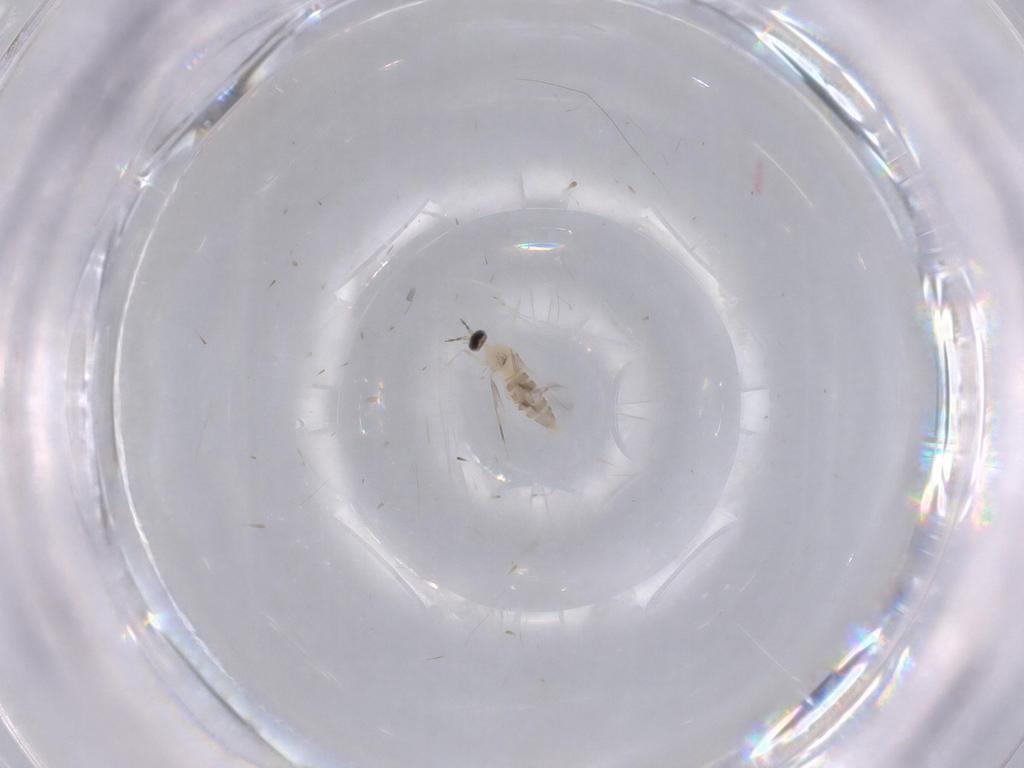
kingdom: Animalia
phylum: Arthropoda
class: Insecta
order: Diptera
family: Cecidomyiidae
